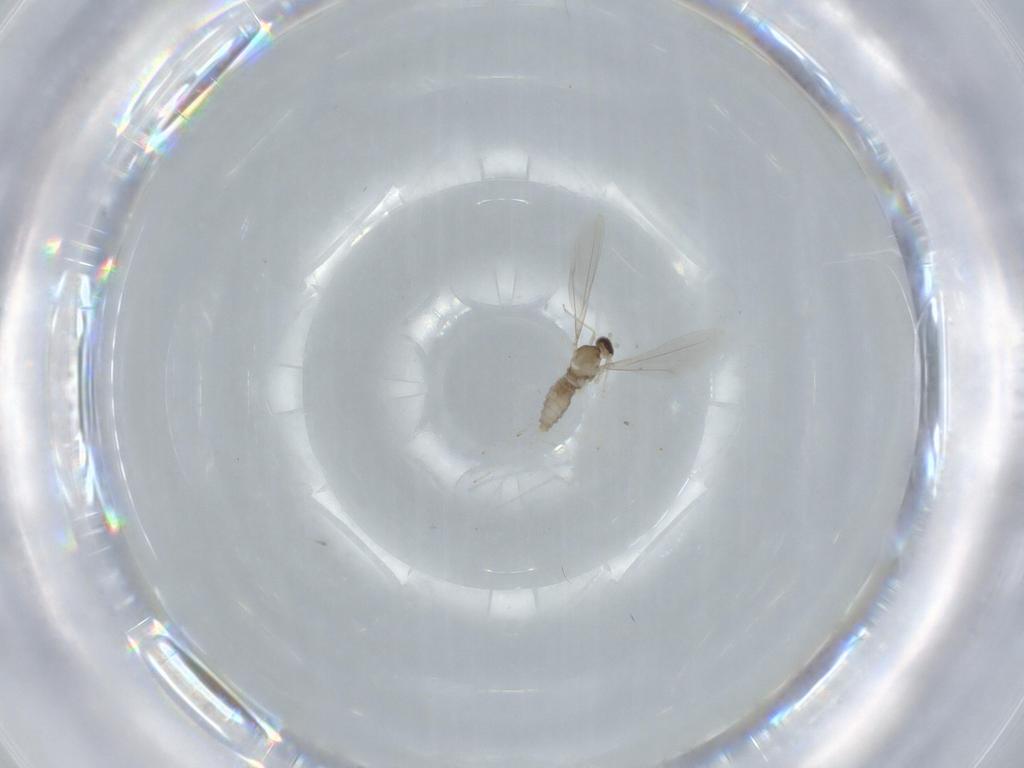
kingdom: Animalia
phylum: Arthropoda
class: Insecta
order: Diptera
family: Cecidomyiidae
